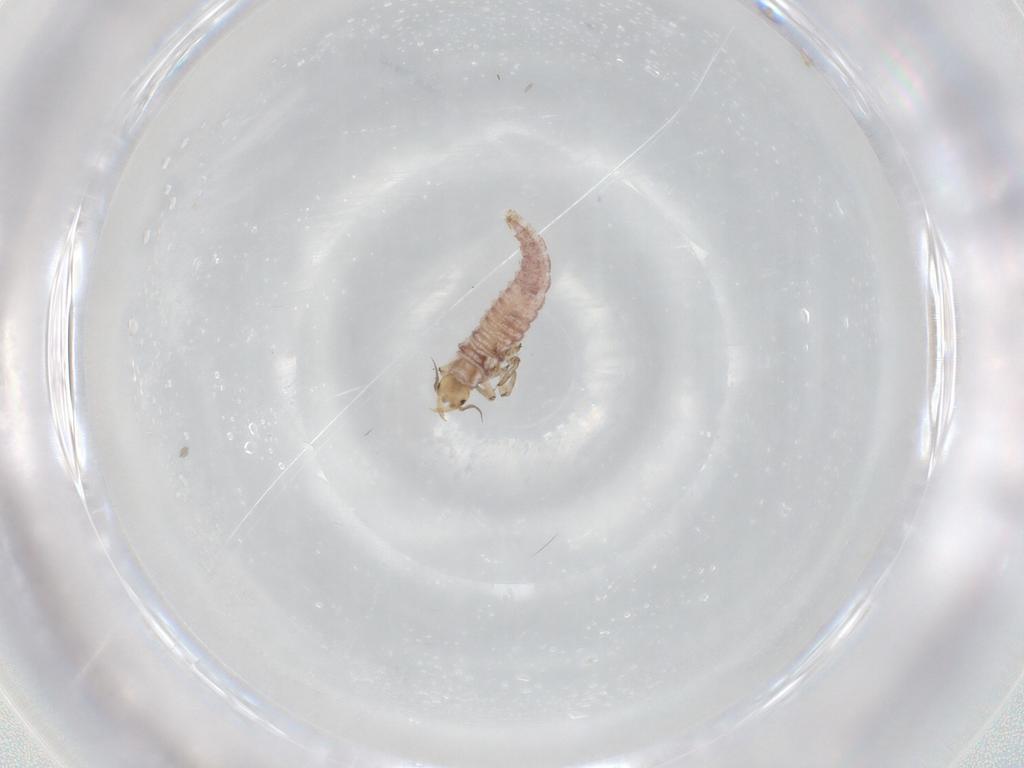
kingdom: Animalia
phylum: Arthropoda
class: Insecta
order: Neuroptera
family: Hemerobiidae
